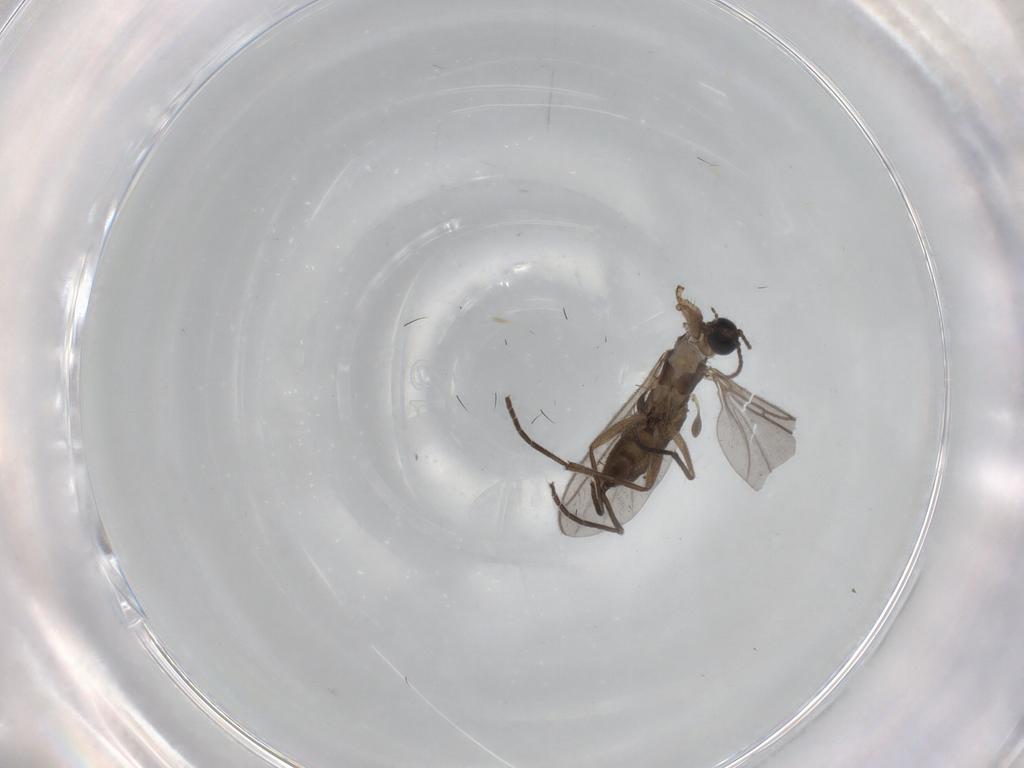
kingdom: Animalia
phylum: Arthropoda
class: Insecta
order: Diptera
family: Sciaridae
